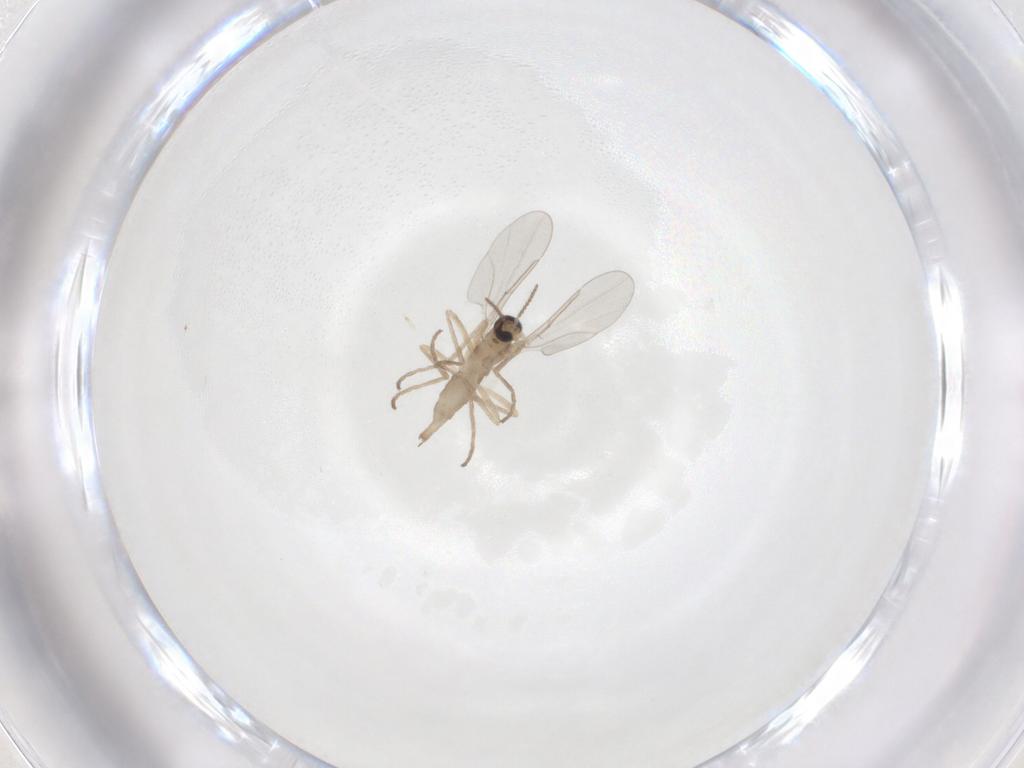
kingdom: Animalia
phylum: Arthropoda
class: Insecta
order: Diptera
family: Cecidomyiidae
